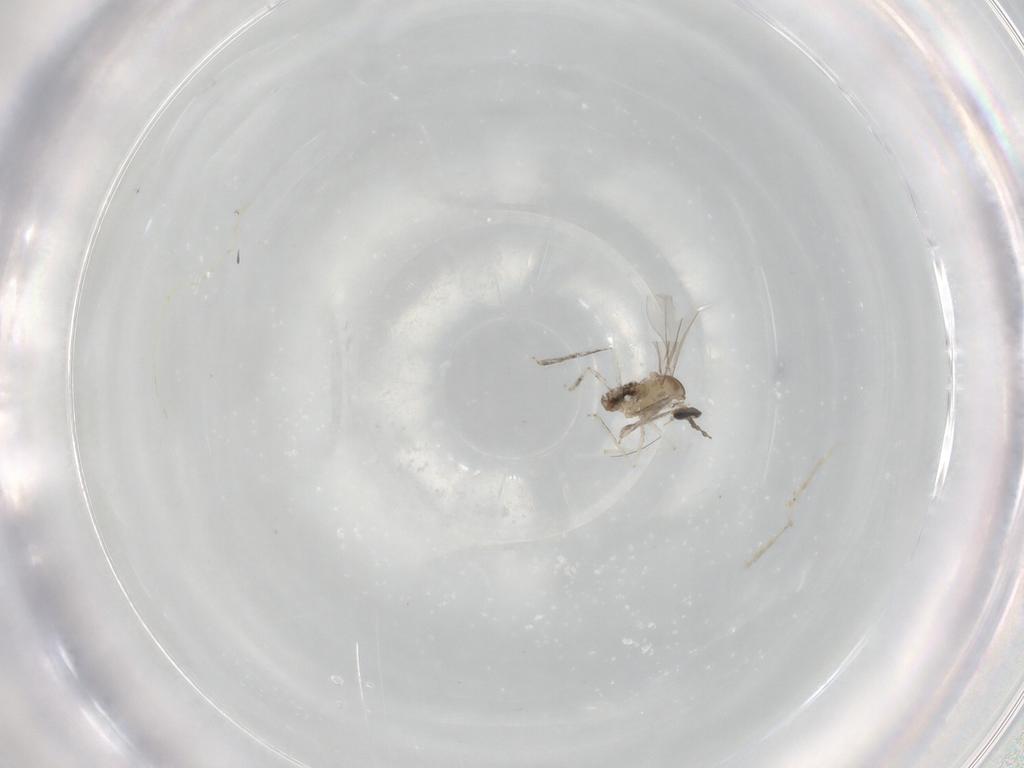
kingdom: Animalia
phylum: Arthropoda
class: Insecta
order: Diptera
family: Cecidomyiidae
